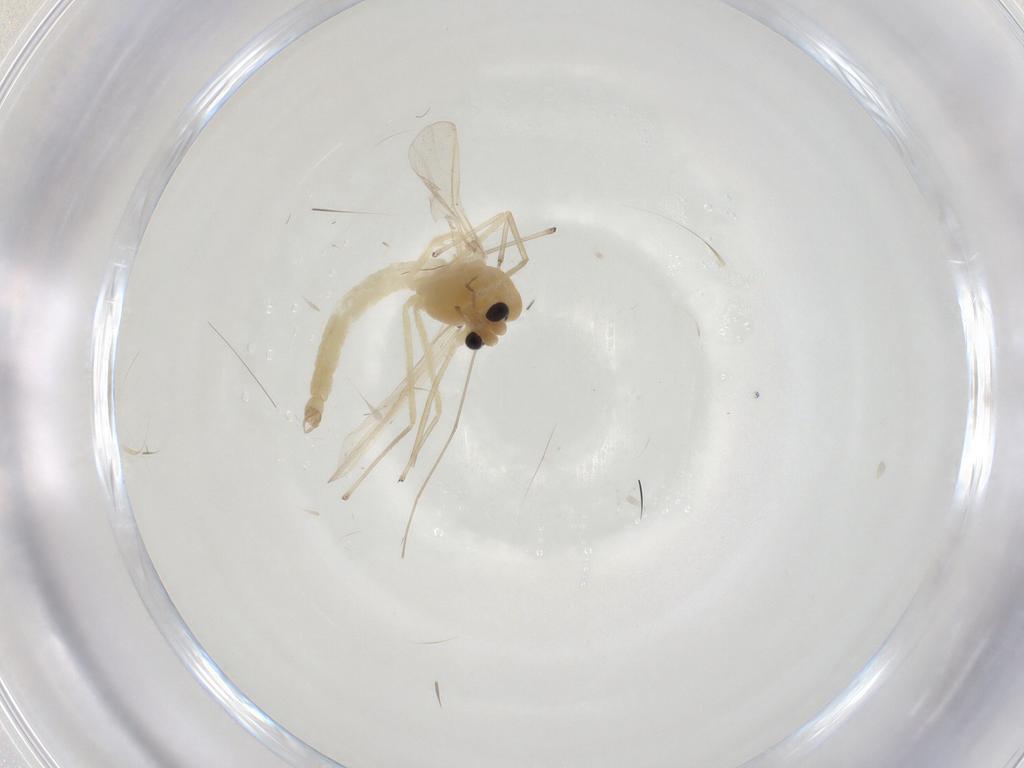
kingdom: Animalia
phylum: Arthropoda
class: Insecta
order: Diptera
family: Chironomidae
